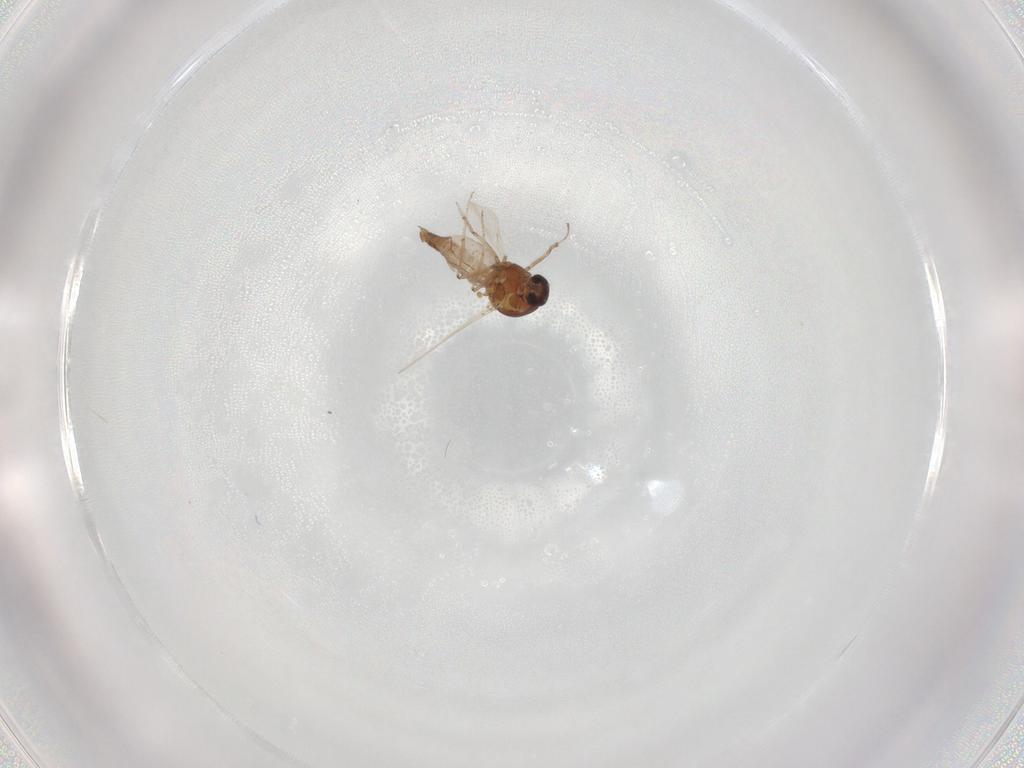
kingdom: Animalia
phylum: Arthropoda
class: Insecta
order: Diptera
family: Ceratopogonidae
